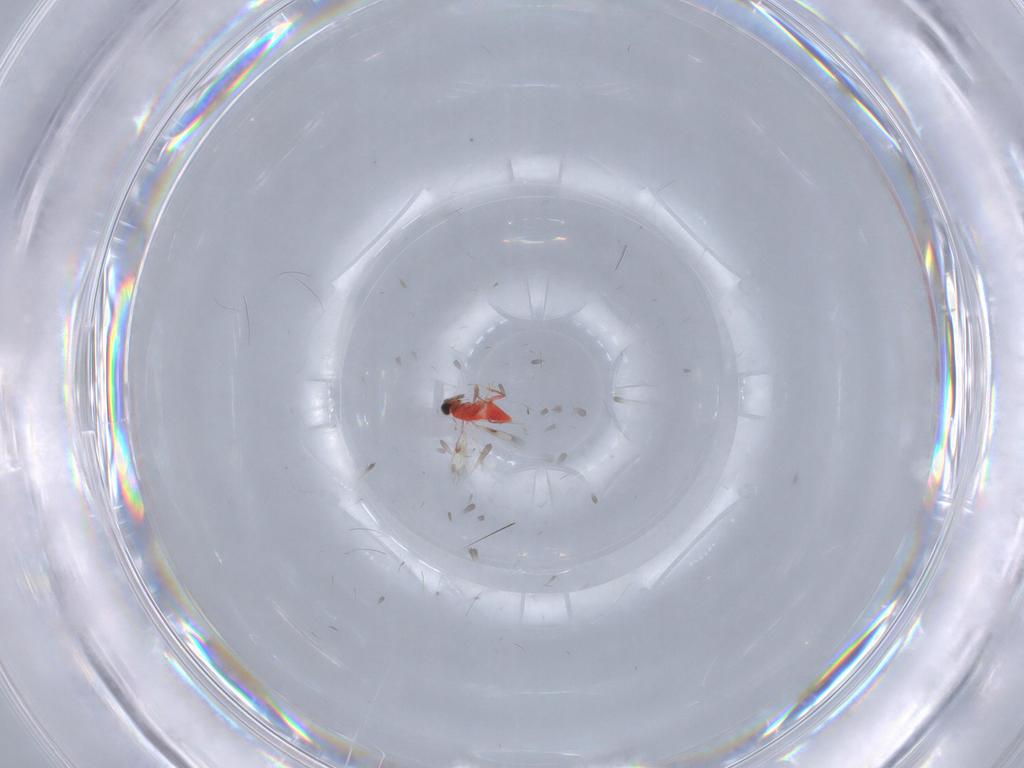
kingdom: Animalia
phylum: Arthropoda
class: Insecta
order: Hymenoptera
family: Trichogrammatidae
